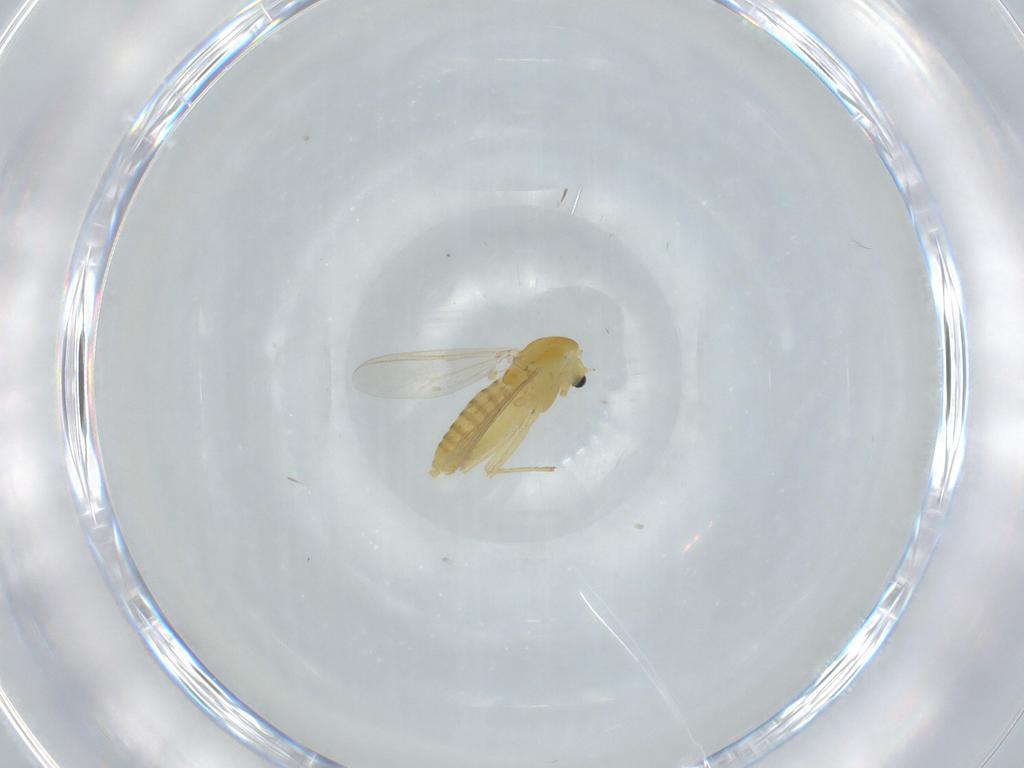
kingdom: Animalia
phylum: Arthropoda
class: Insecta
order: Diptera
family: Chironomidae
